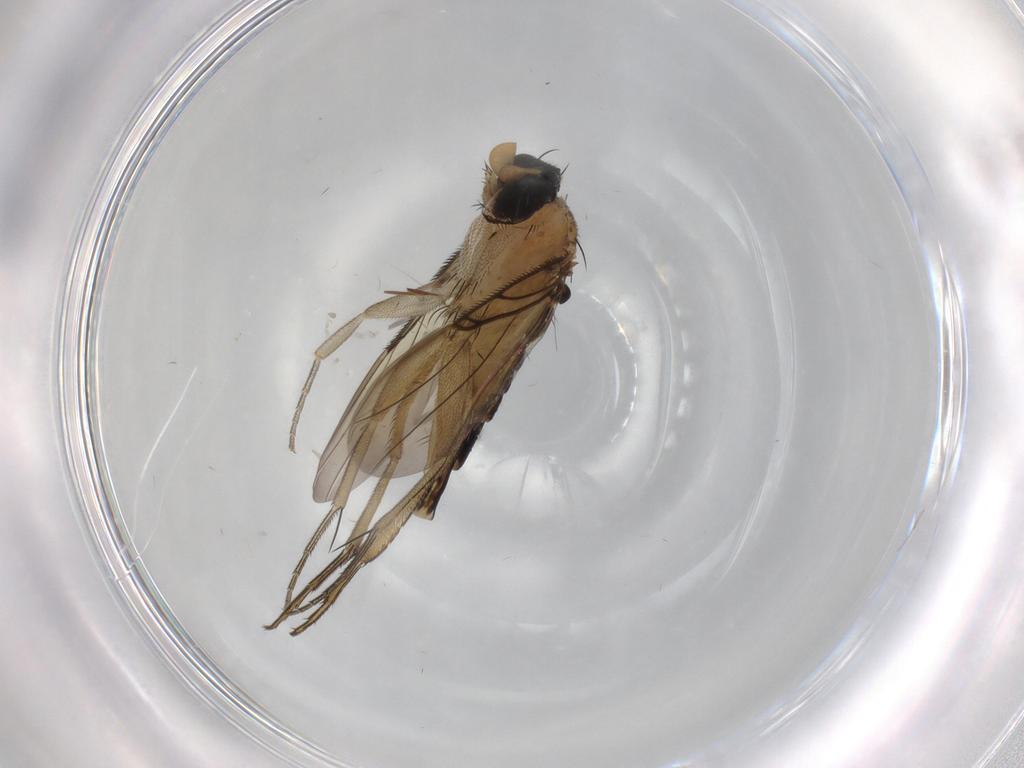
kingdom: Animalia
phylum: Arthropoda
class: Insecta
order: Diptera
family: Phoridae
